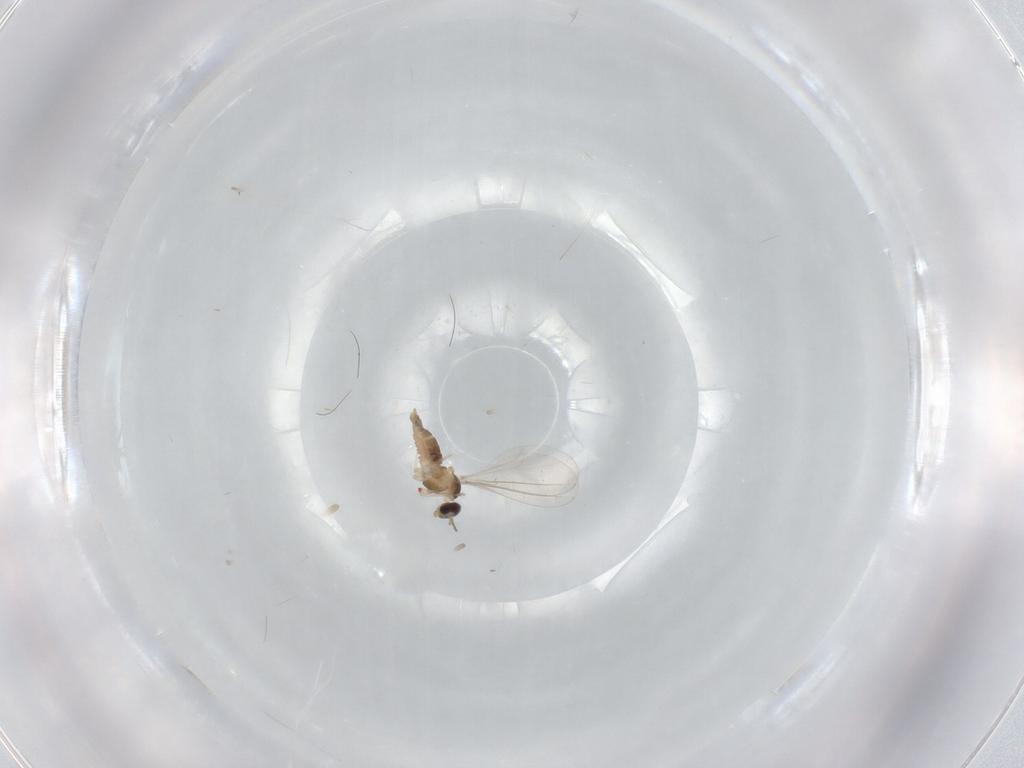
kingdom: Animalia
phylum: Arthropoda
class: Insecta
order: Diptera
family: Cecidomyiidae
